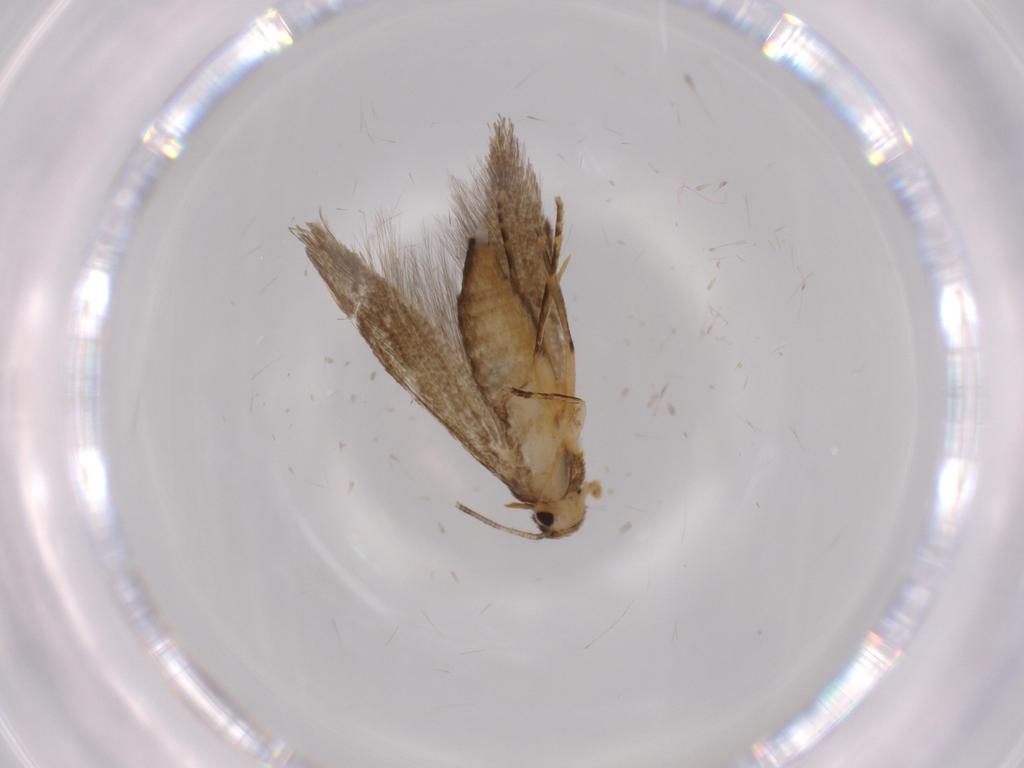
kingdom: Animalia
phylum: Arthropoda
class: Insecta
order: Lepidoptera
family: Tineidae
